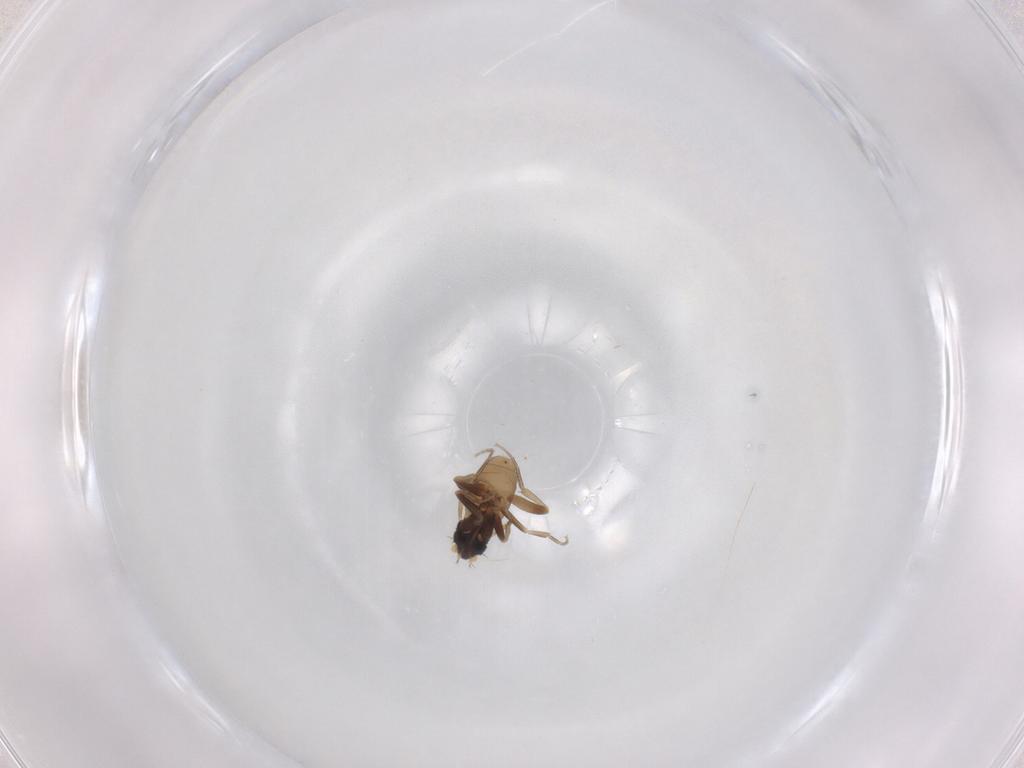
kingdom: Animalia
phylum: Arthropoda
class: Insecta
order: Diptera
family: Phoridae
